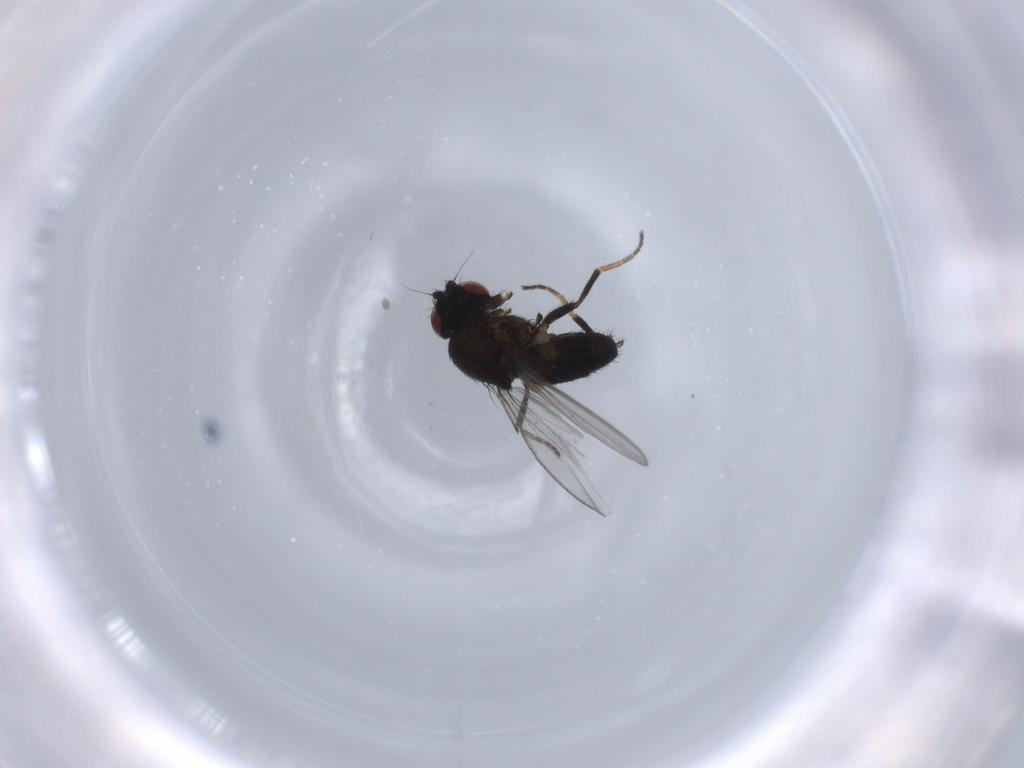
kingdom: Animalia
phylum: Arthropoda
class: Insecta
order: Diptera
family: Milichiidae
